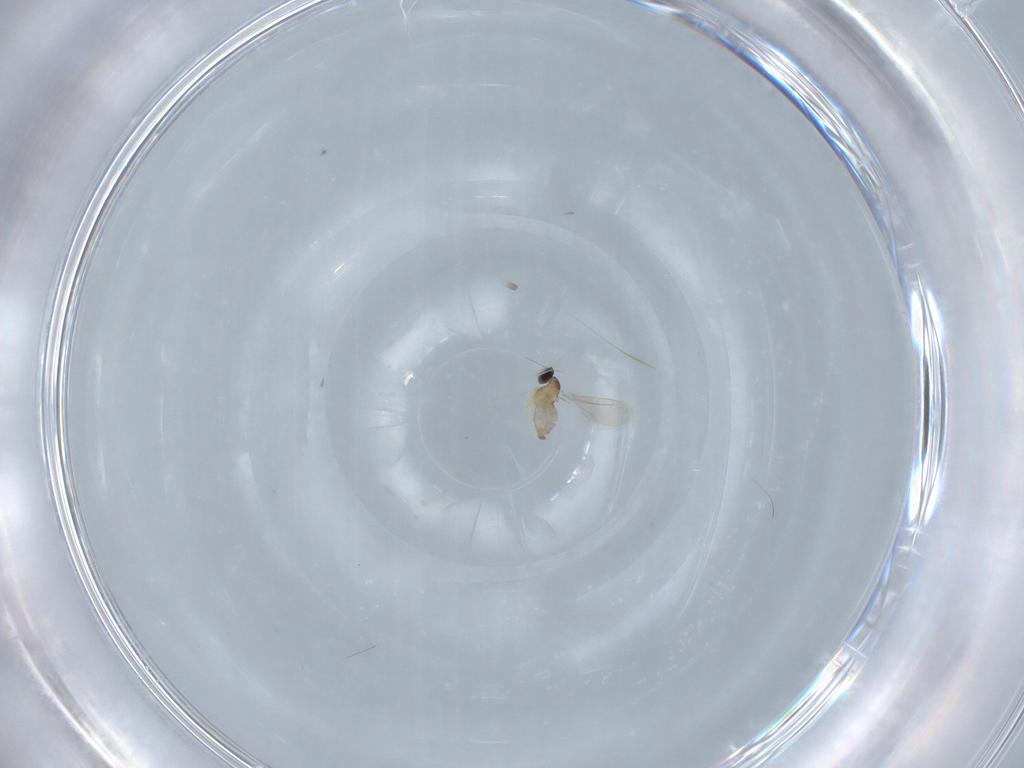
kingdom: Animalia
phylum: Arthropoda
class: Insecta
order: Diptera
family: Cecidomyiidae
